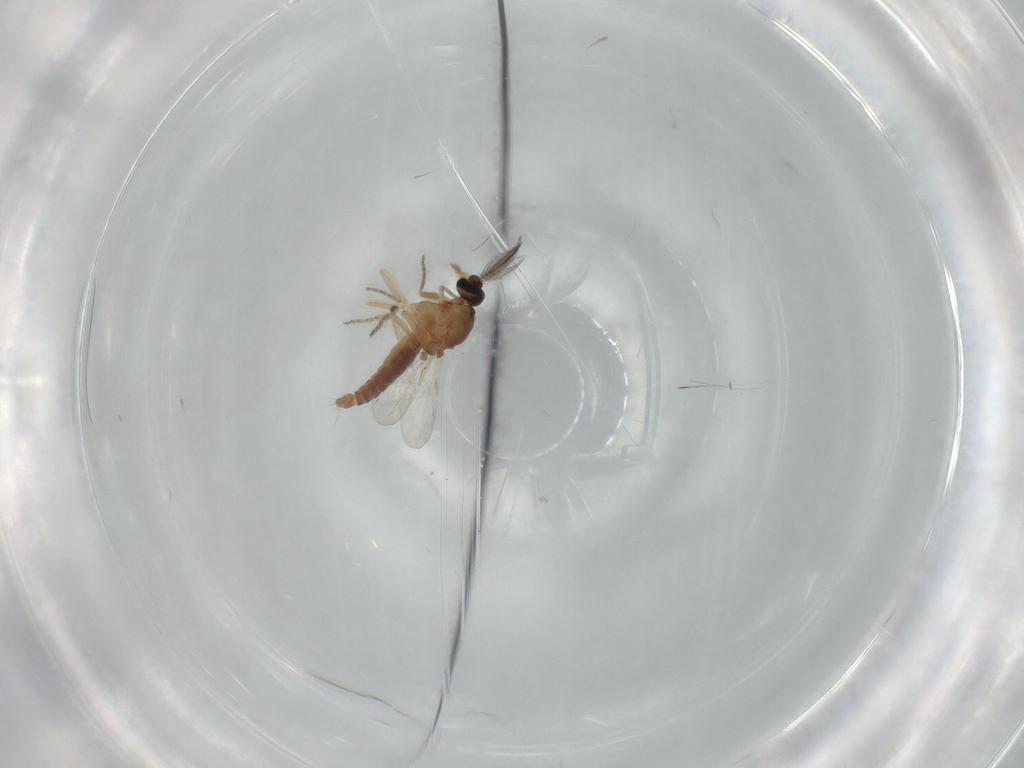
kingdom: Animalia
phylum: Arthropoda
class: Insecta
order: Diptera
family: Ceratopogonidae
